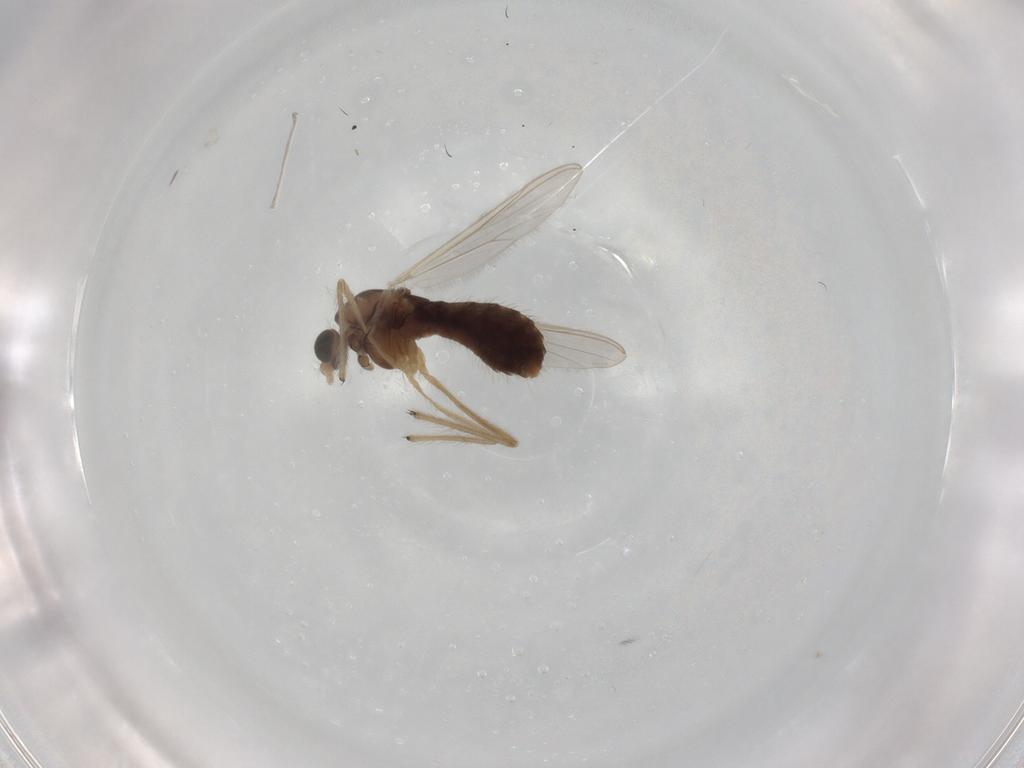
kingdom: Animalia
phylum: Arthropoda
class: Insecta
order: Diptera
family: Chironomidae
